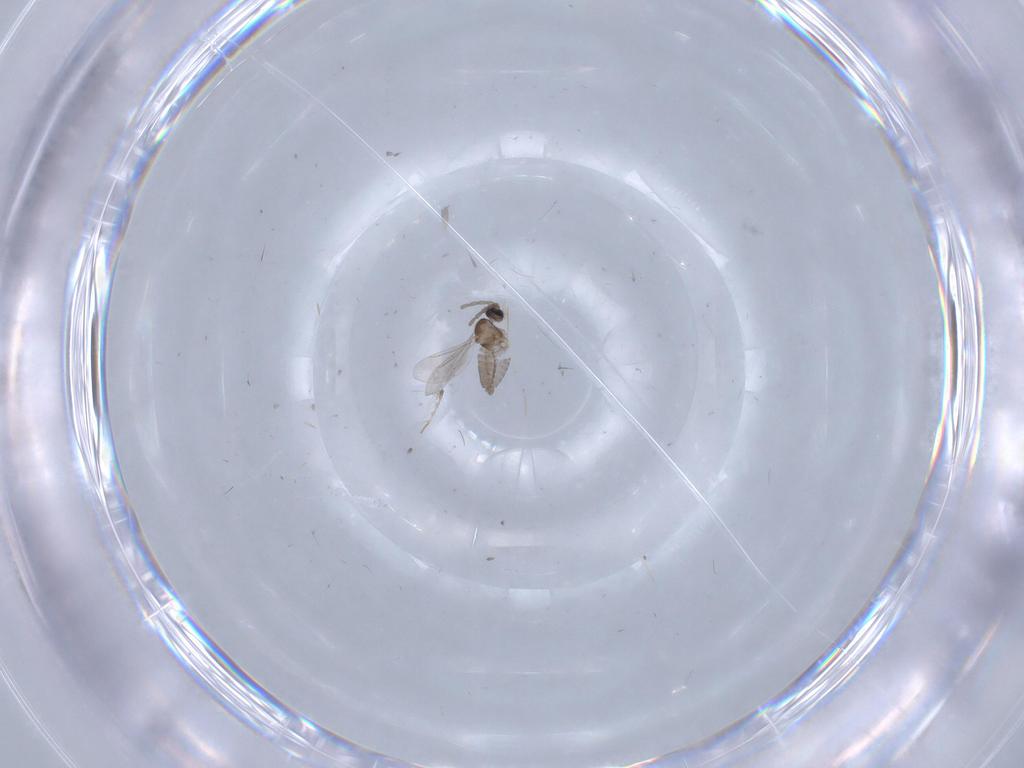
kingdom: Animalia
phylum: Arthropoda
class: Insecta
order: Diptera
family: Cecidomyiidae
